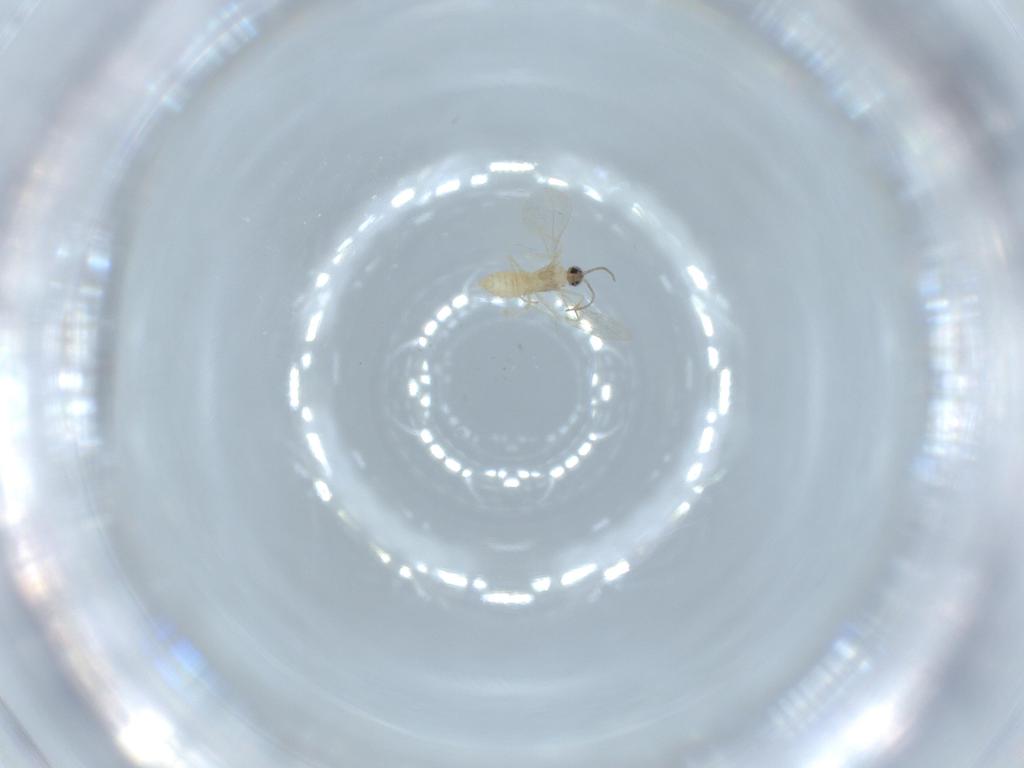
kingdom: Animalia
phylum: Arthropoda
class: Insecta
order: Diptera
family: Cecidomyiidae
